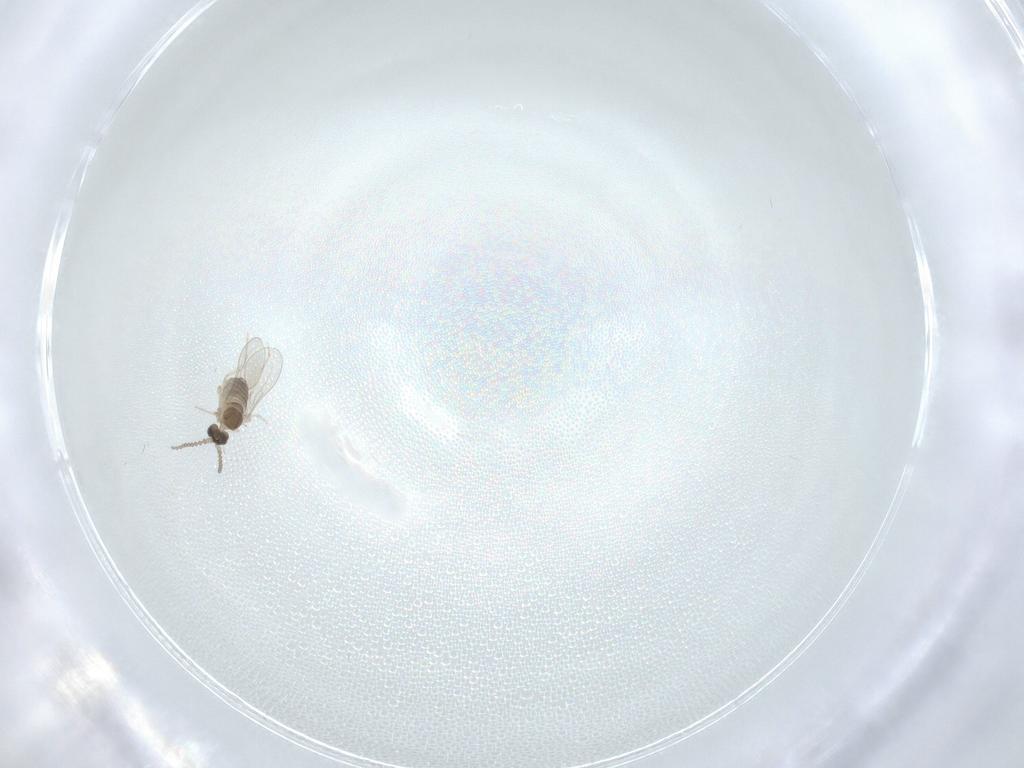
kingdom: Animalia
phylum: Arthropoda
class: Insecta
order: Diptera
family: Cecidomyiidae
